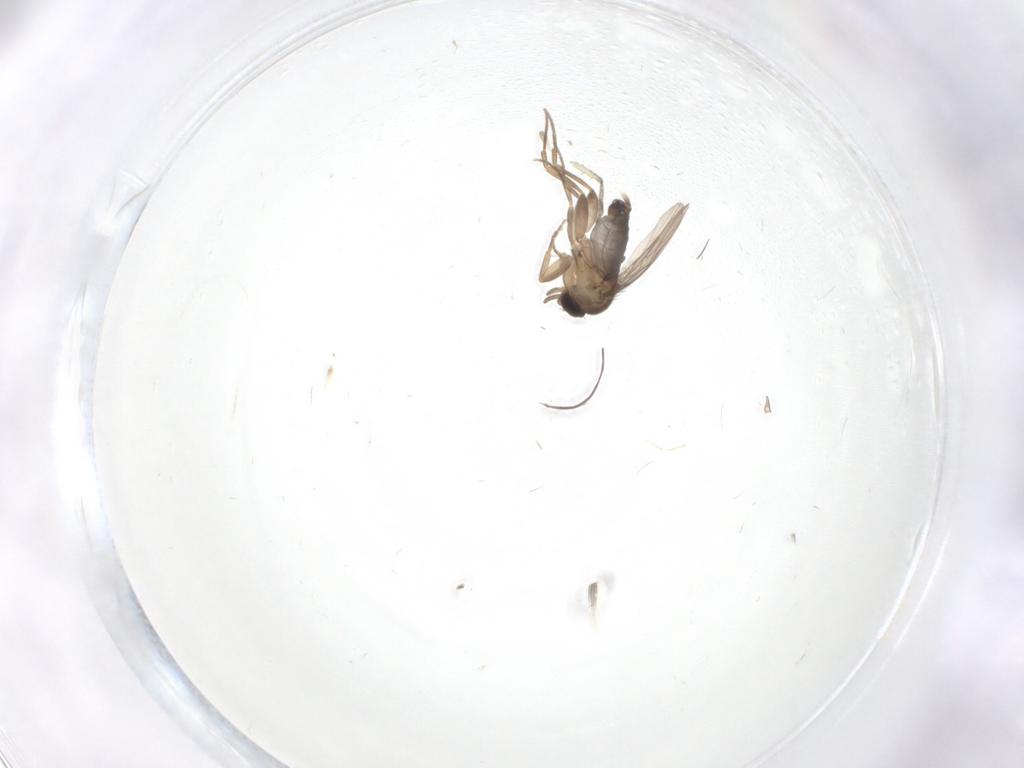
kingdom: Animalia
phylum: Arthropoda
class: Insecta
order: Diptera
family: Phoridae
